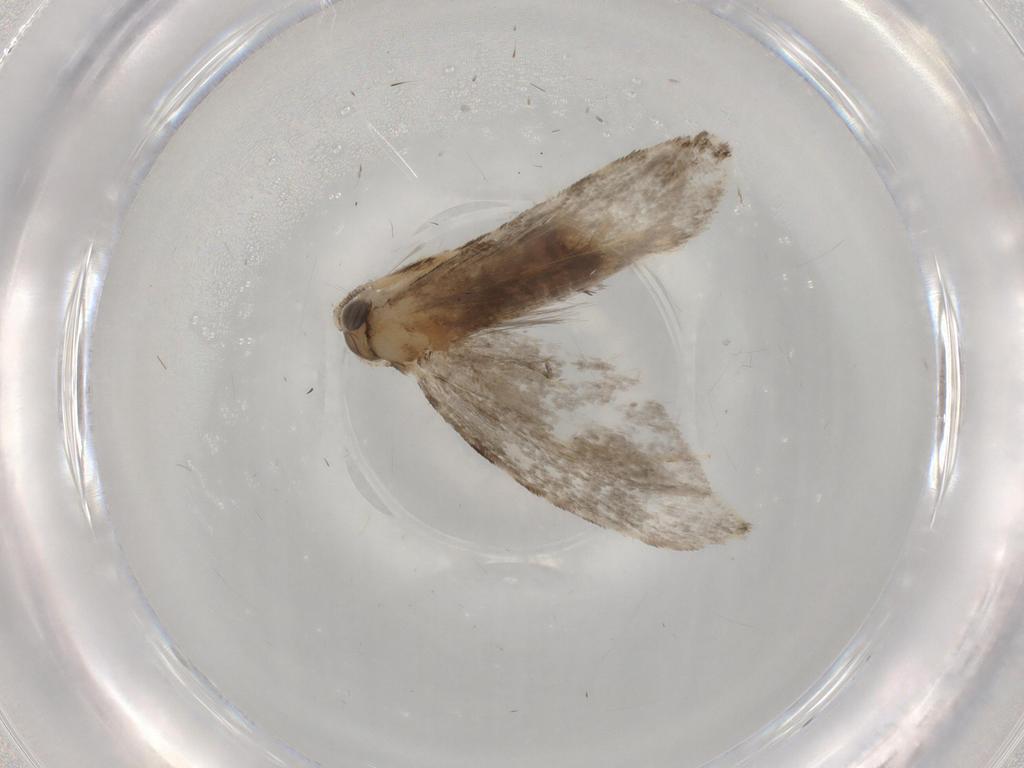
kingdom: Animalia
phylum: Arthropoda
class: Insecta
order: Lepidoptera
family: Tineidae
